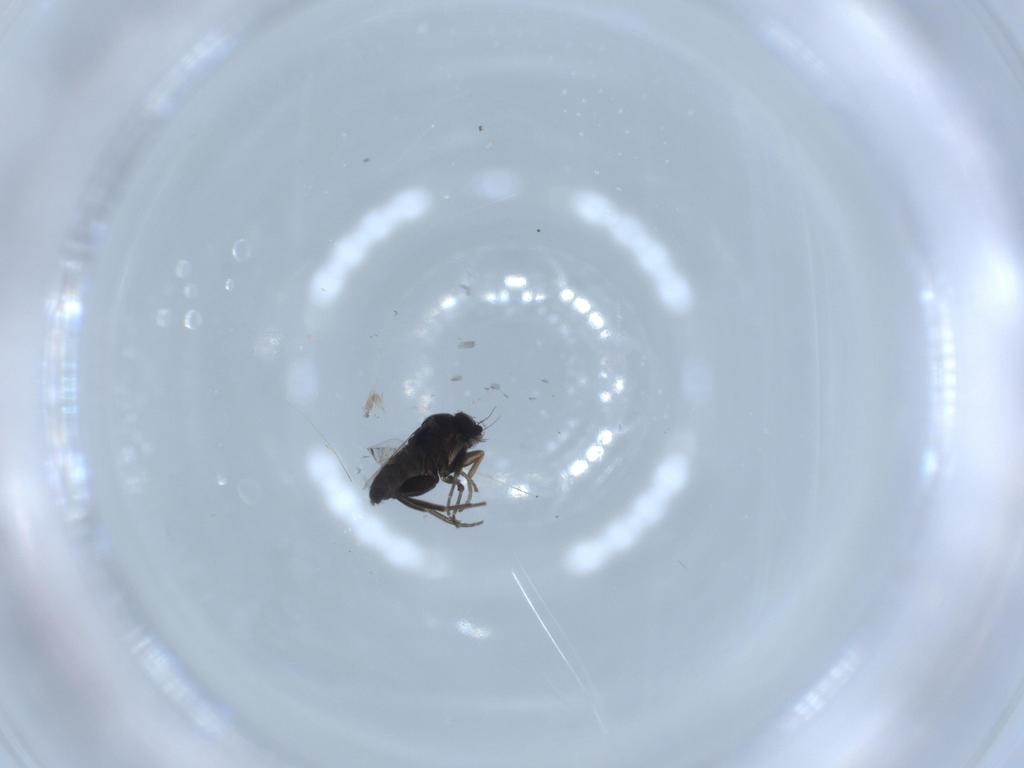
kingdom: Animalia
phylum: Arthropoda
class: Insecta
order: Diptera
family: Phoridae
